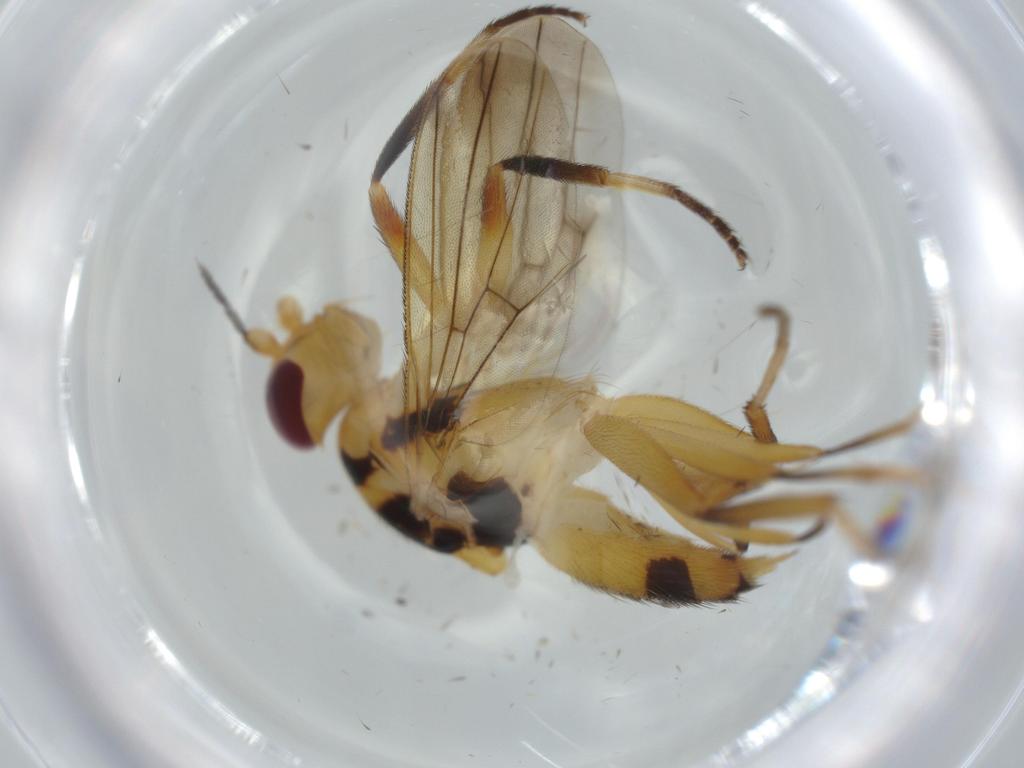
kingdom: Animalia
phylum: Arthropoda
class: Insecta
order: Diptera
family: Sciaridae
